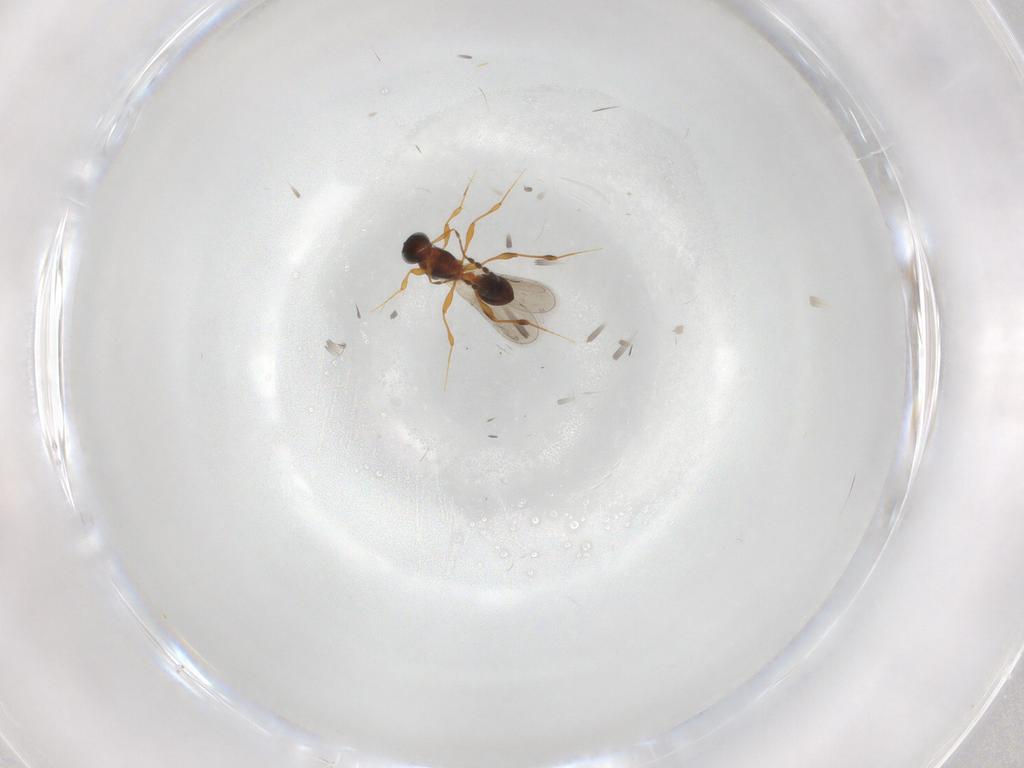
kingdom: Animalia
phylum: Arthropoda
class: Insecta
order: Hymenoptera
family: Platygastridae
